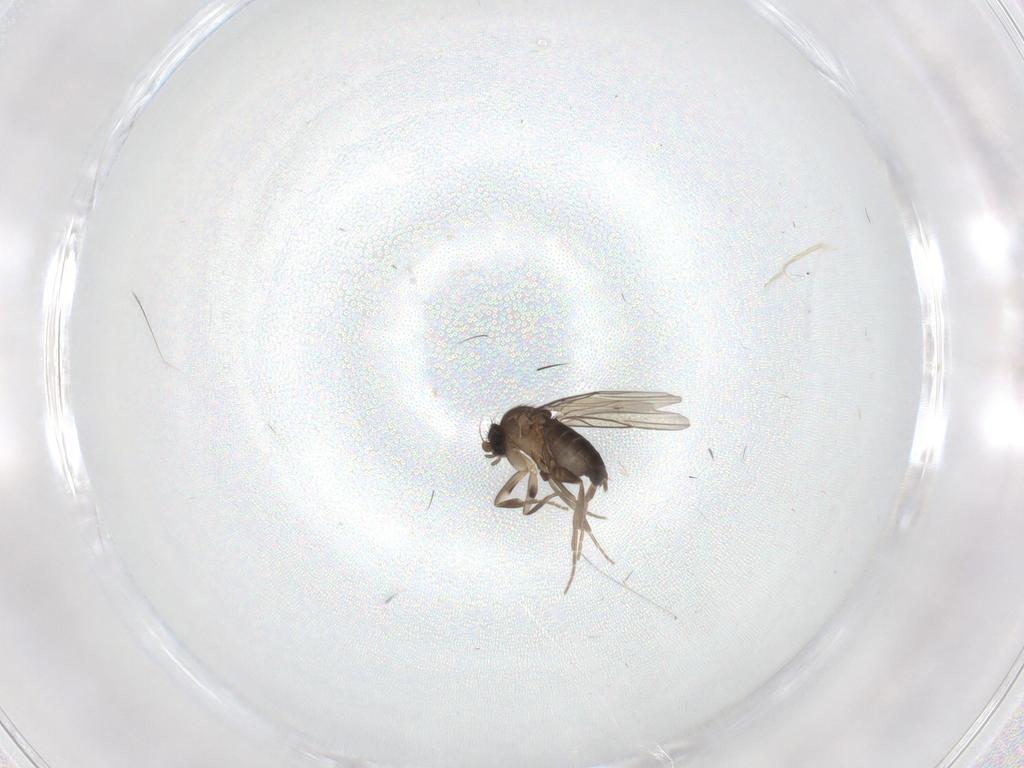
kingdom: Animalia
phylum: Arthropoda
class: Insecta
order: Diptera
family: Phoridae
